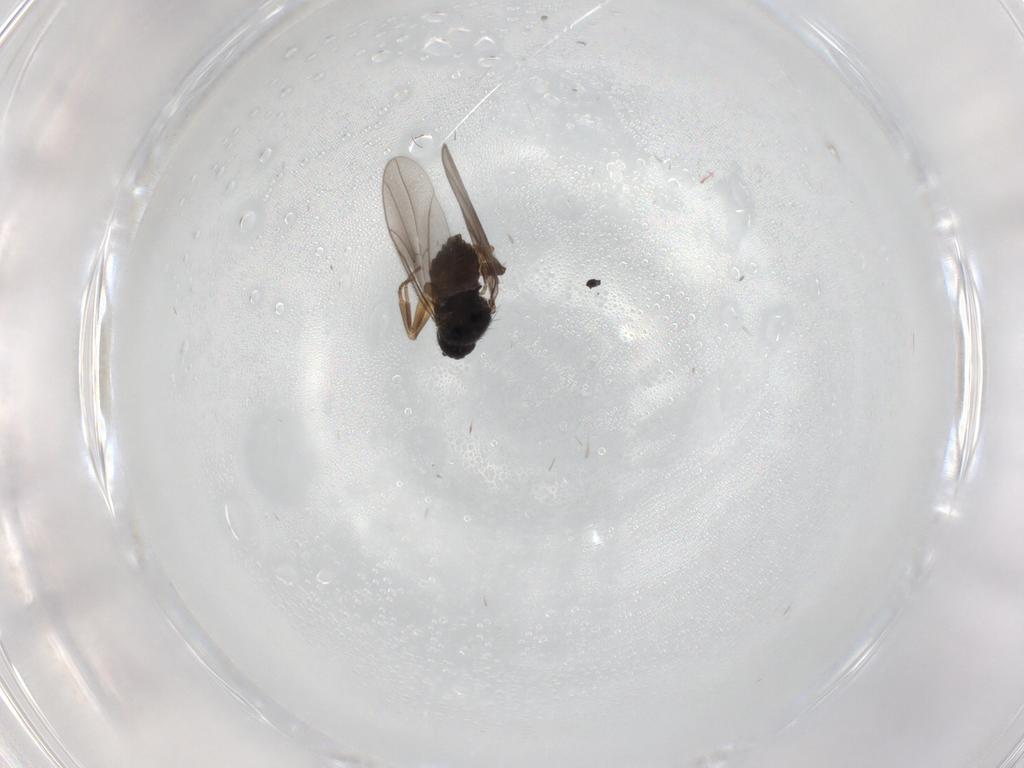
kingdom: Animalia
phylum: Arthropoda
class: Insecta
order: Diptera
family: Hybotidae
